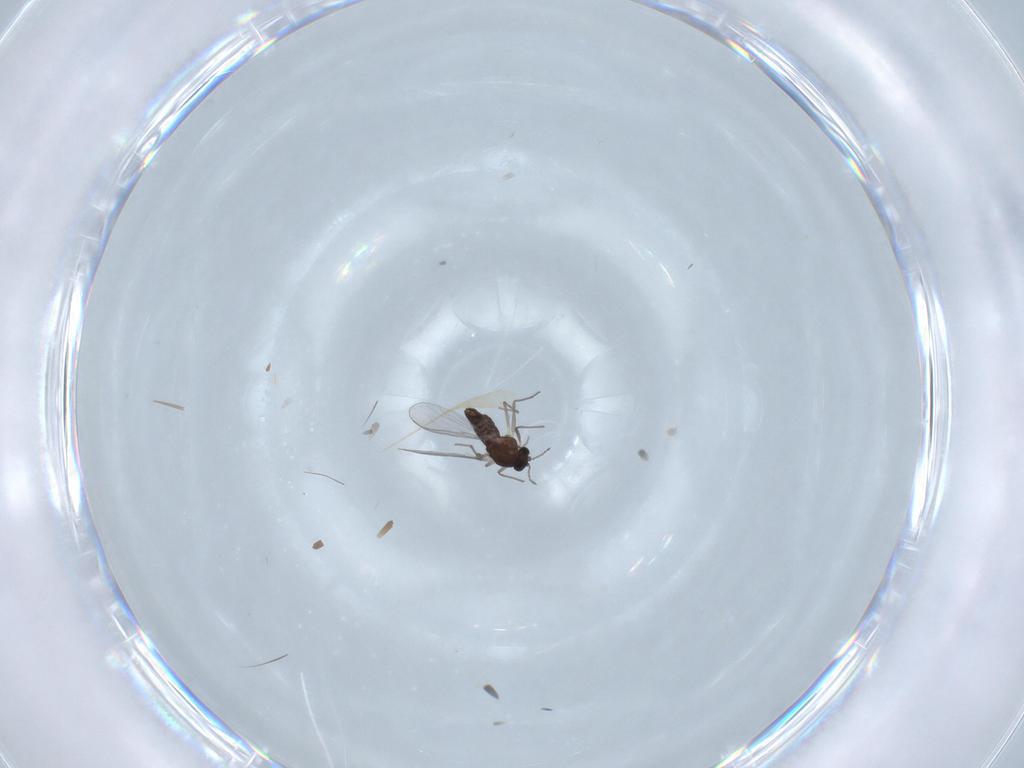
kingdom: Animalia
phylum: Arthropoda
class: Insecta
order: Diptera
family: Chironomidae
